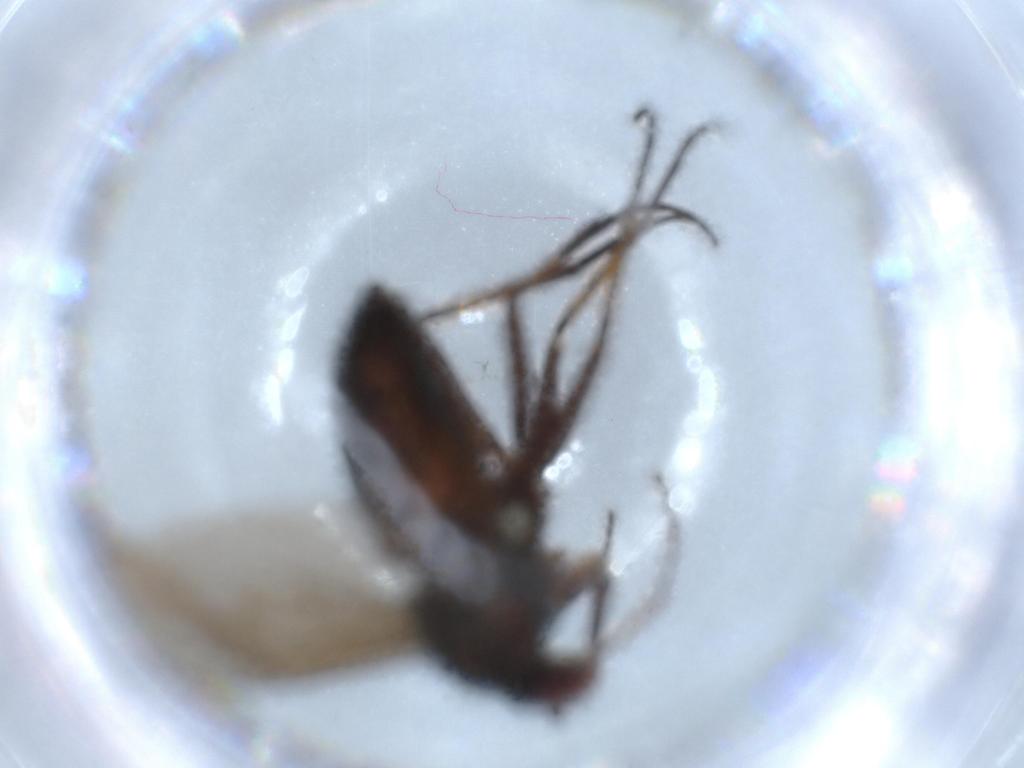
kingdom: Animalia
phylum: Arthropoda
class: Insecta
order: Diptera
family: Dolichopodidae
